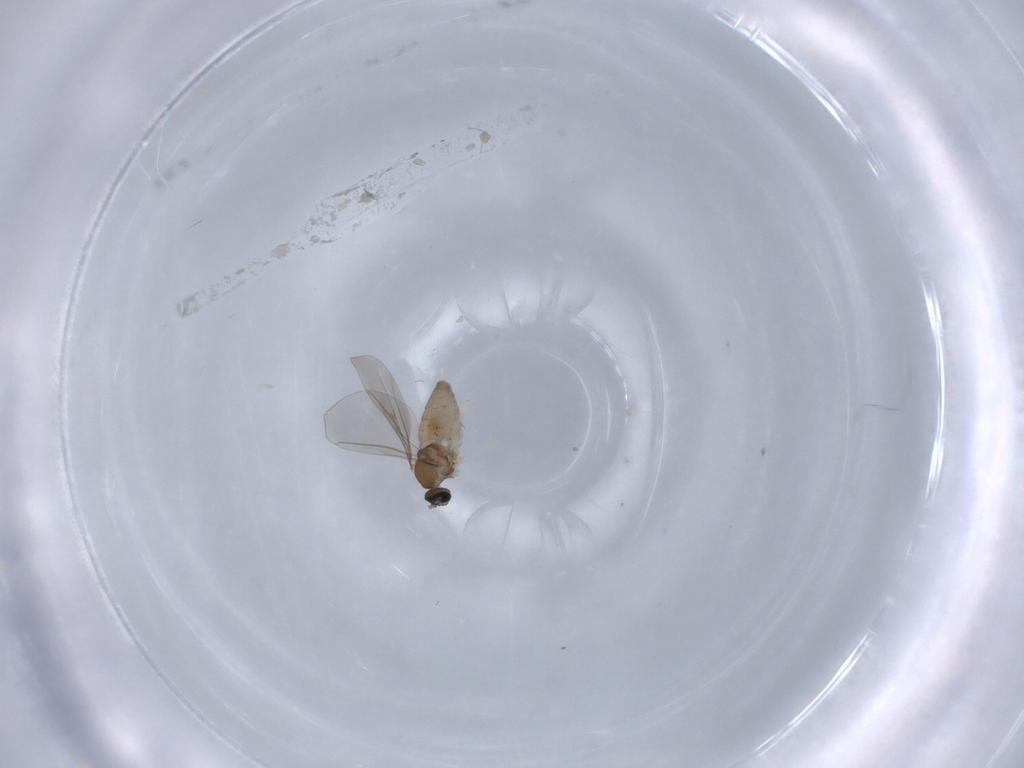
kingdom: Animalia
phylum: Arthropoda
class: Insecta
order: Diptera
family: Cecidomyiidae
